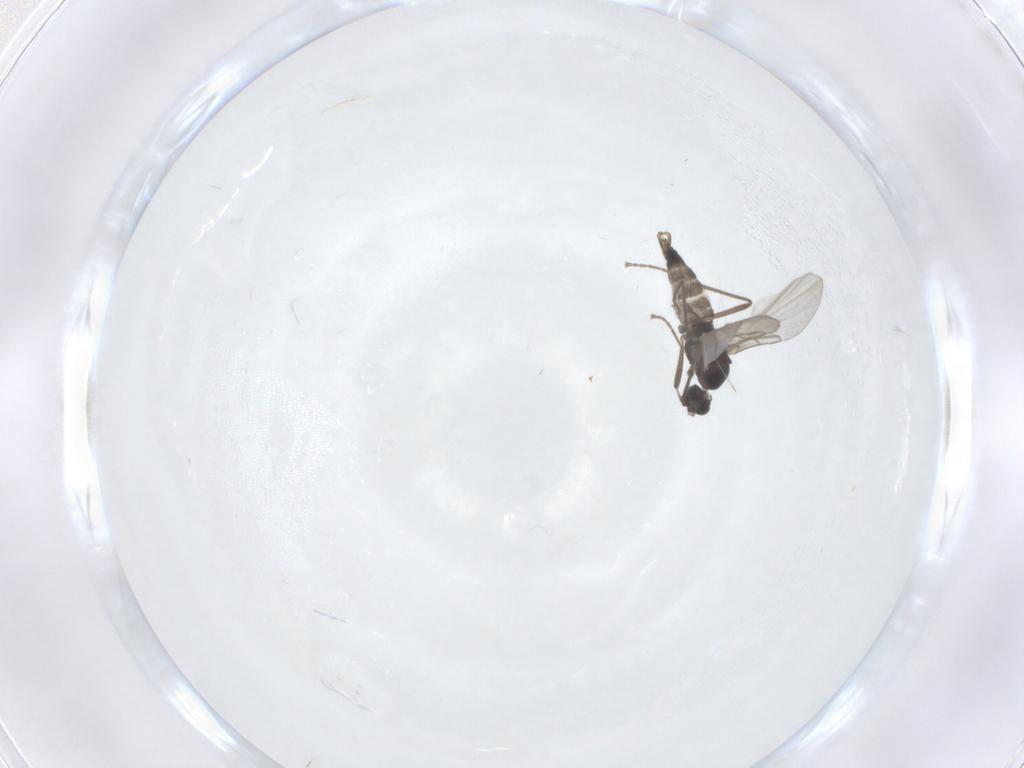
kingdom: Animalia
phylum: Arthropoda
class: Insecta
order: Diptera
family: Cecidomyiidae
